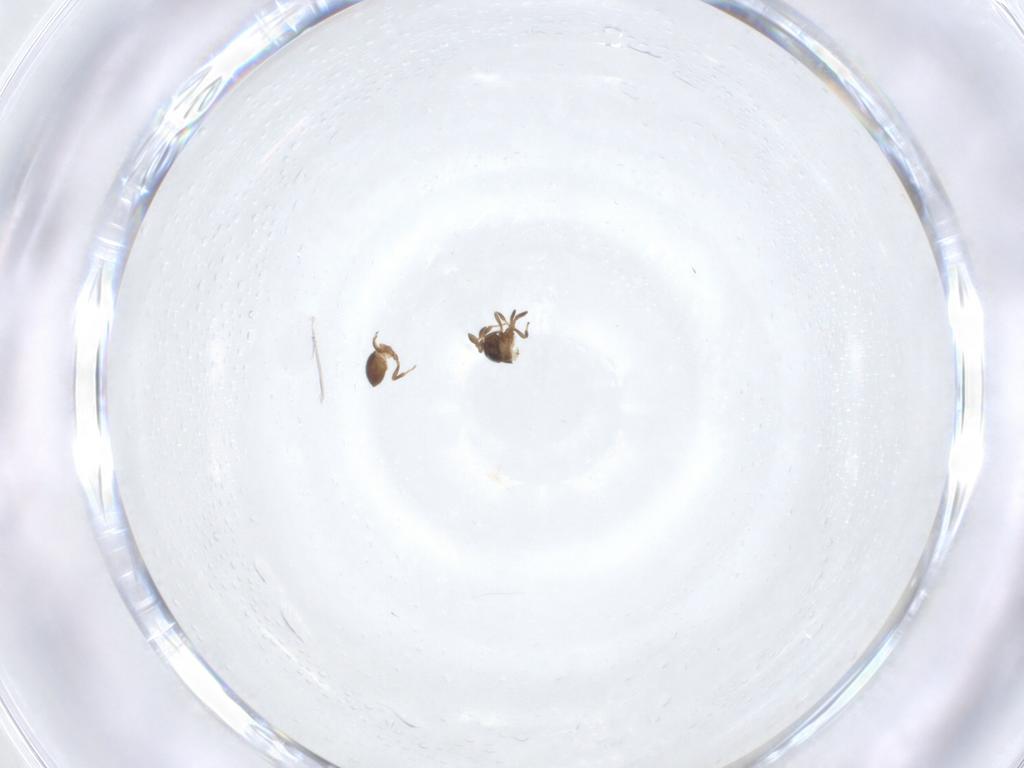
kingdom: Animalia
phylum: Arthropoda
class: Insecta
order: Hymenoptera
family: Scelionidae
